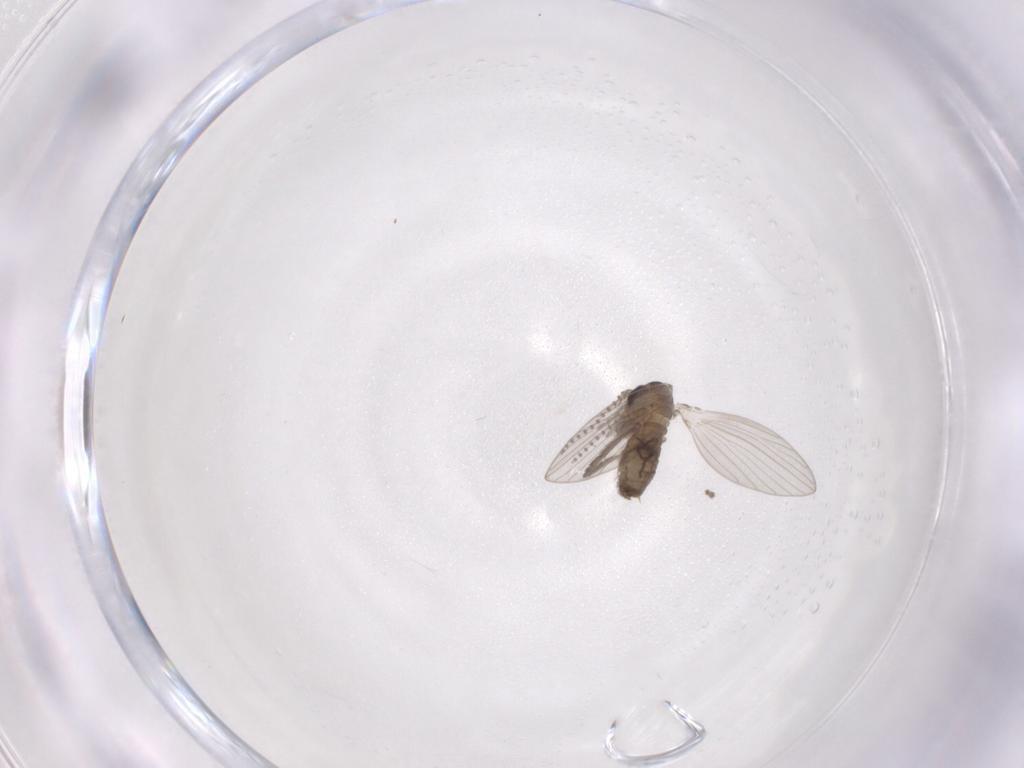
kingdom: Animalia
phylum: Arthropoda
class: Insecta
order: Diptera
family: Psychodidae
